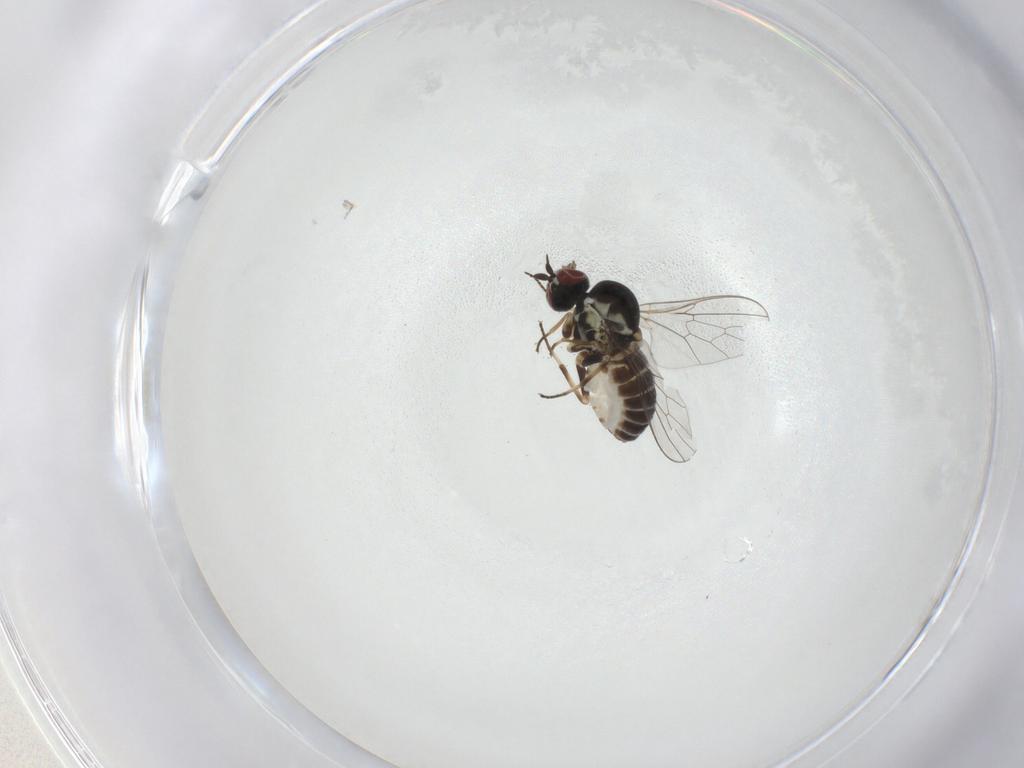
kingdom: Animalia
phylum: Arthropoda
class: Insecta
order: Diptera
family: Mythicomyiidae
